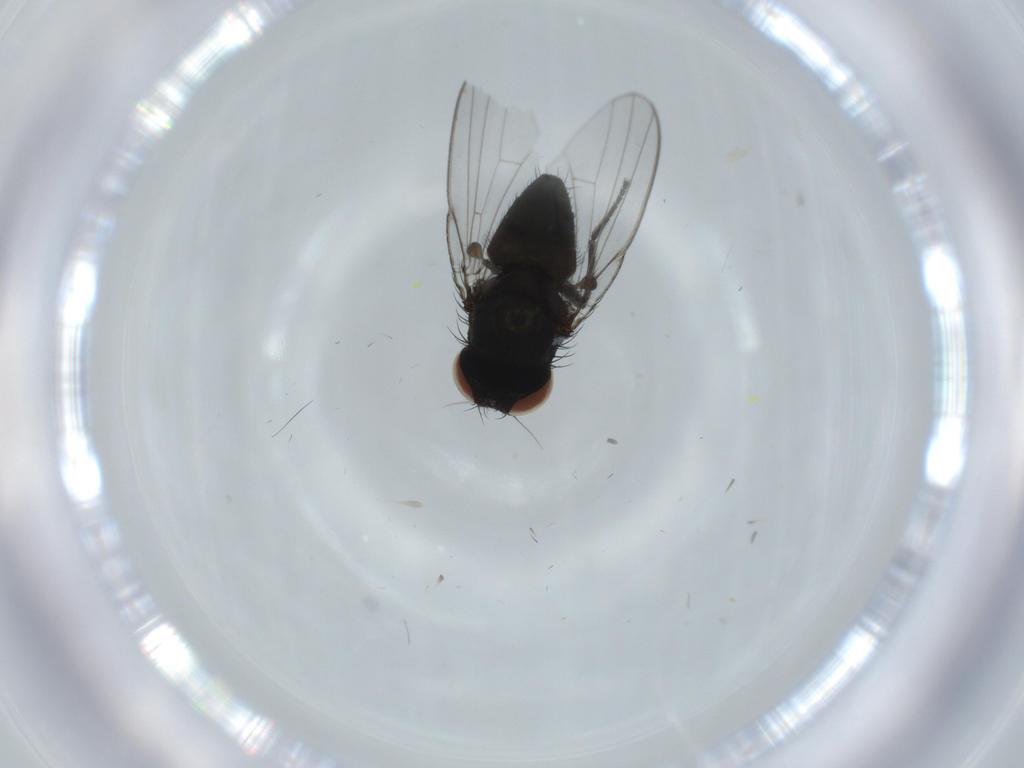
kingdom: Animalia
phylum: Arthropoda
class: Insecta
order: Diptera
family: Milichiidae
